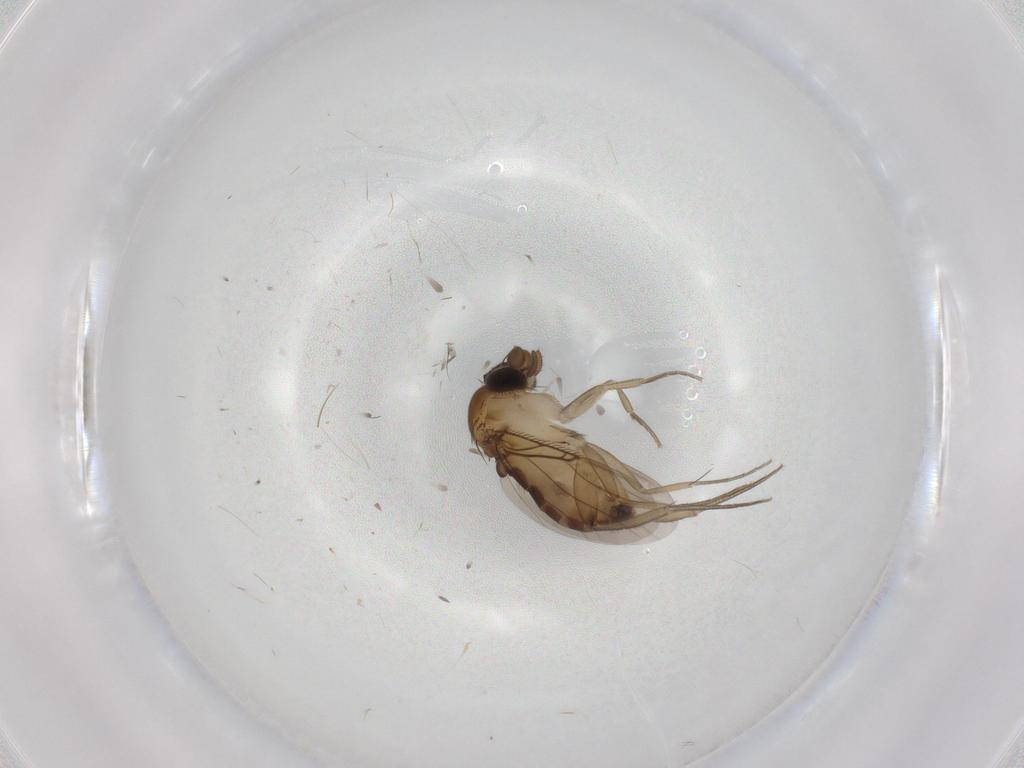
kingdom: Animalia
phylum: Arthropoda
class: Insecta
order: Diptera
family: Phoridae
